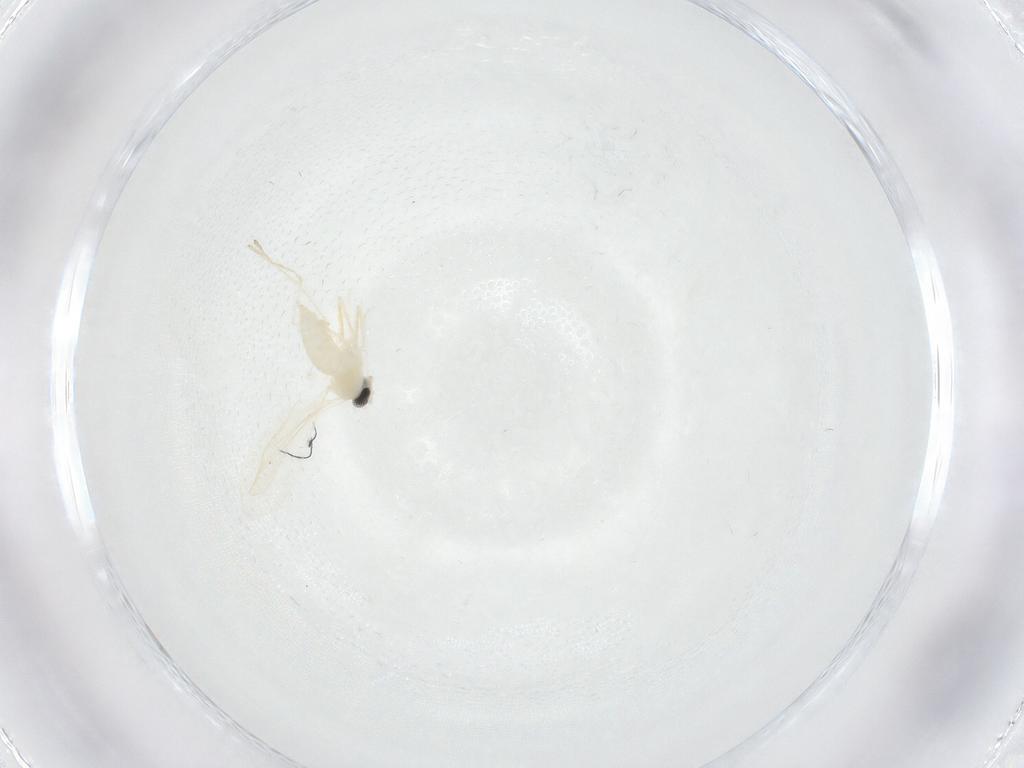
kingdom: Animalia
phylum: Arthropoda
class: Insecta
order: Diptera
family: Cecidomyiidae
